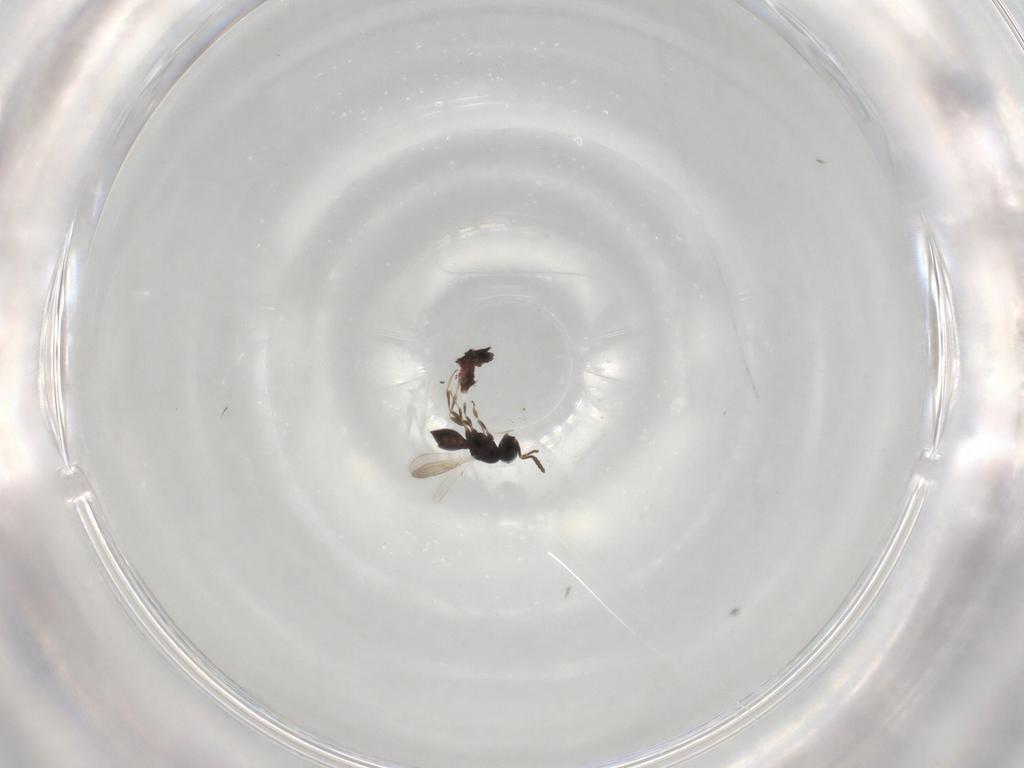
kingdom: Animalia
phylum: Arthropoda
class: Insecta
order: Hymenoptera
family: Scelionidae
